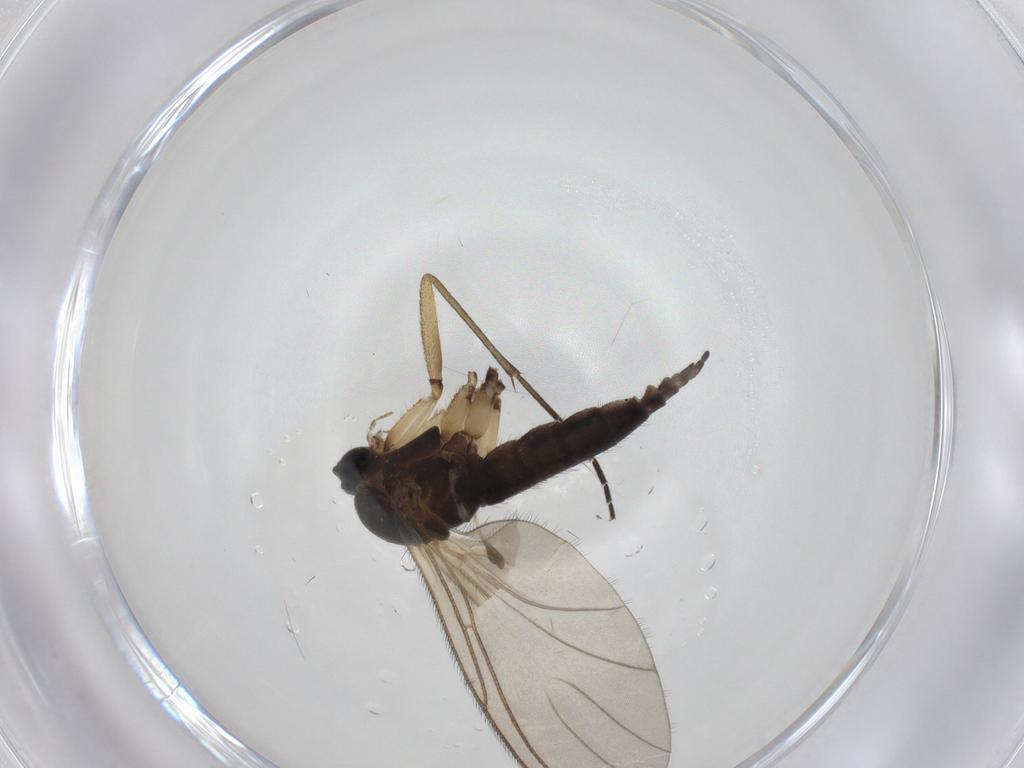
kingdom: Animalia
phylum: Arthropoda
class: Insecta
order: Diptera
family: Sciaridae
